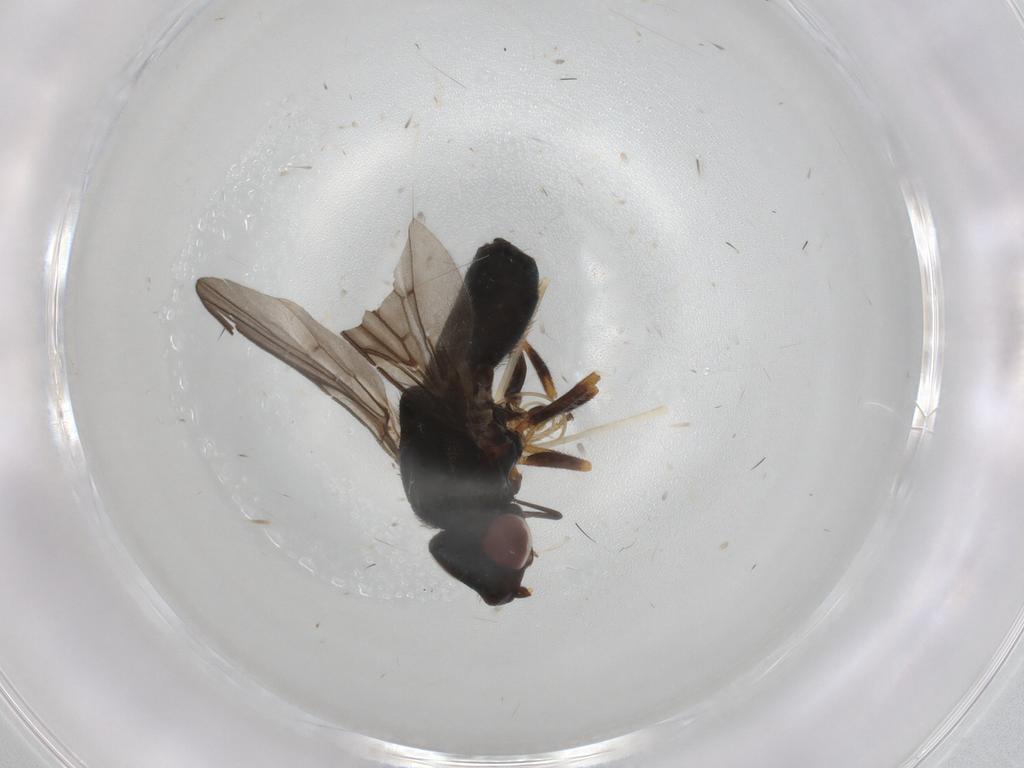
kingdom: Animalia
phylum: Arthropoda
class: Insecta
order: Diptera
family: Chloropidae
